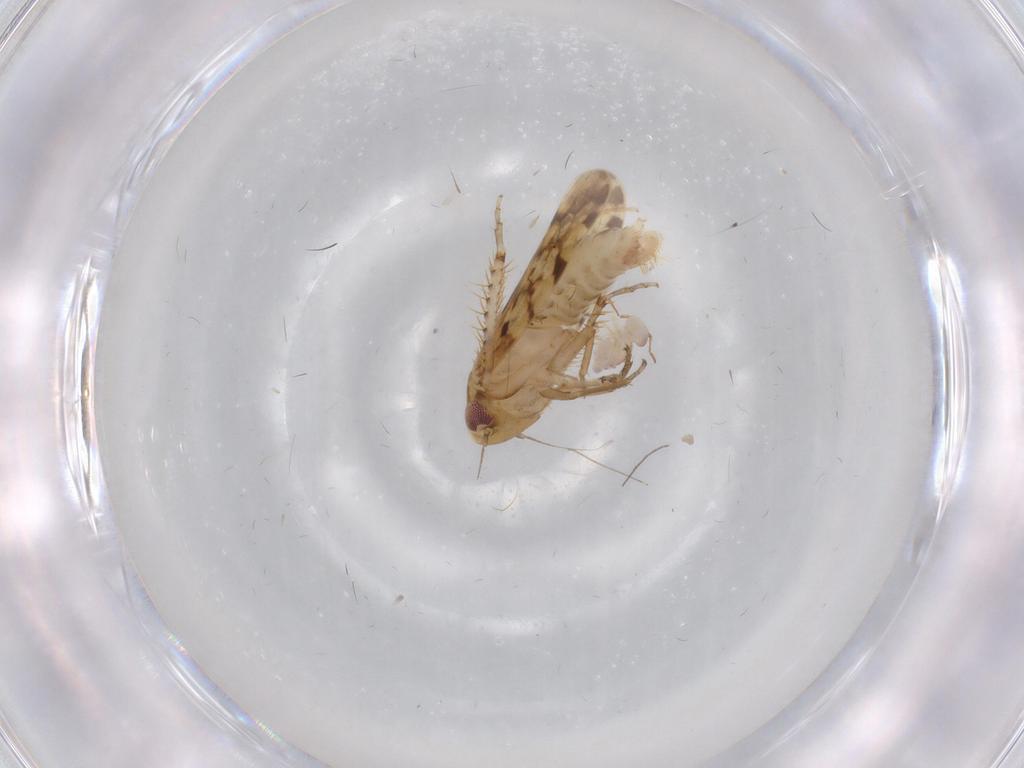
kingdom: Animalia
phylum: Arthropoda
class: Insecta
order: Hemiptera
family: Cicadellidae
